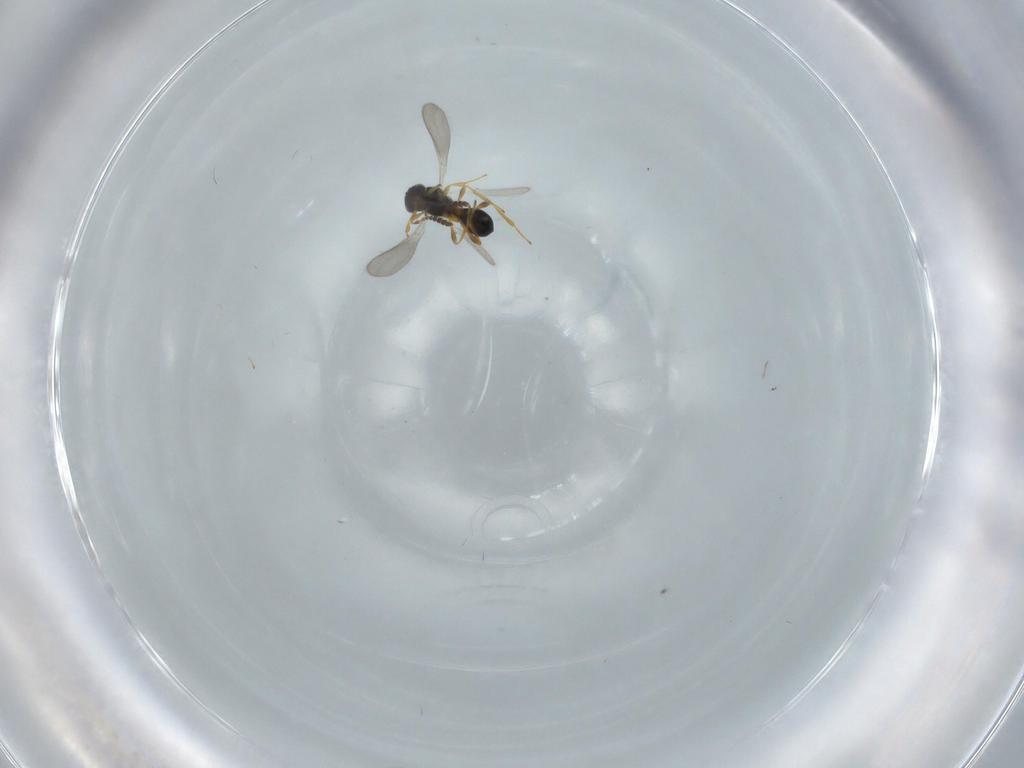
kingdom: Animalia
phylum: Arthropoda
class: Insecta
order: Hymenoptera
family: Platygastridae
